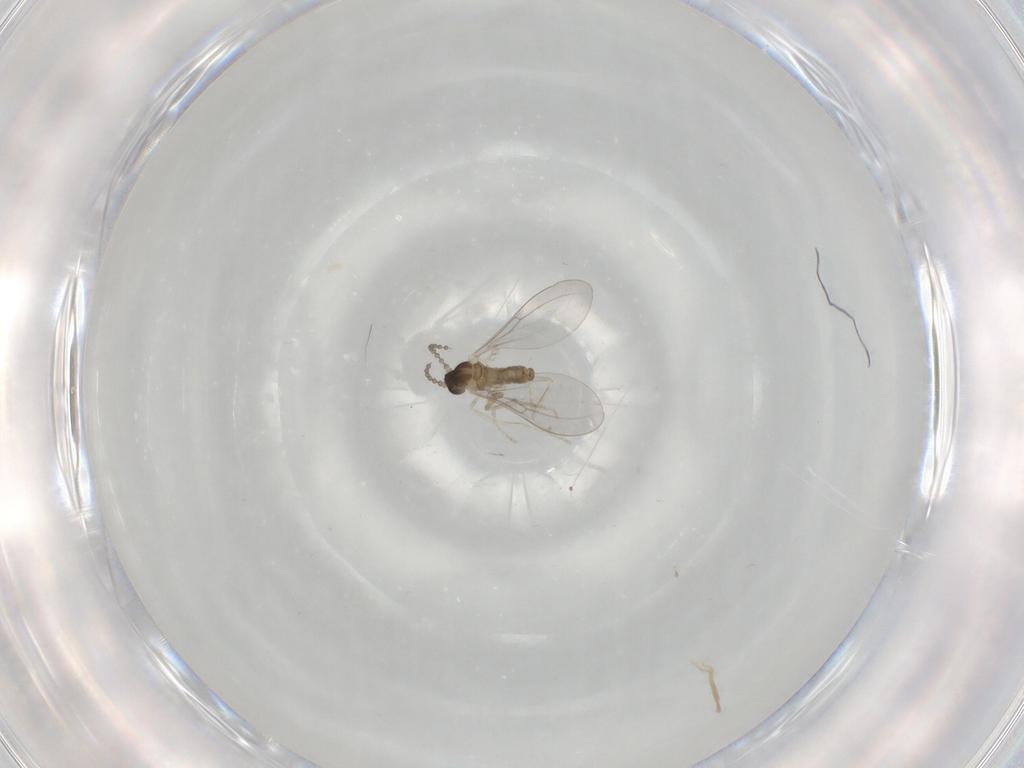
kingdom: Animalia
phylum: Arthropoda
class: Insecta
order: Diptera
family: Cecidomyiidae
